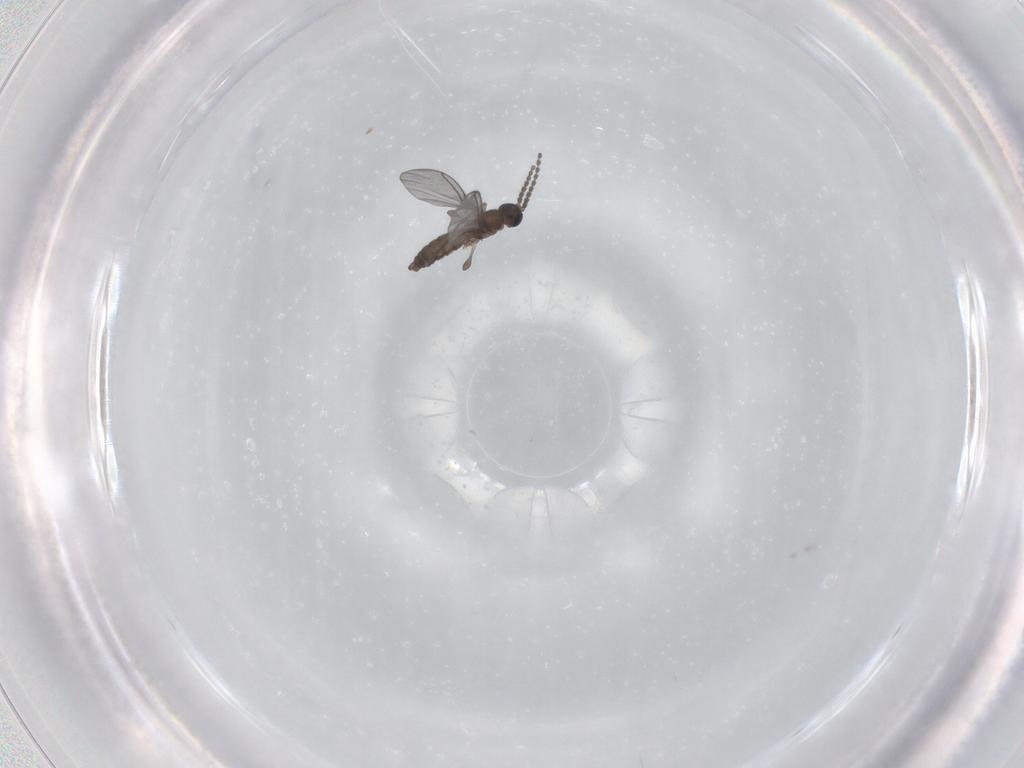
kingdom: Animalia
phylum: Arthropoda
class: Insecta
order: Diptera
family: Sciaridae
